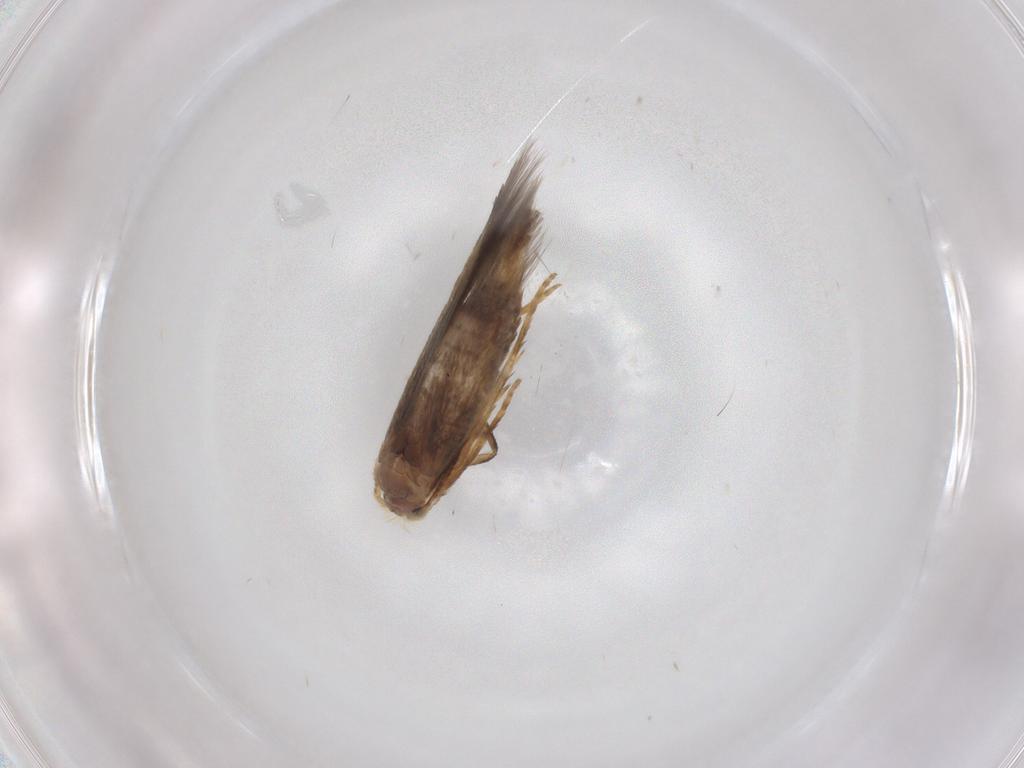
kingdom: Animalia
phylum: Arthropoda
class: Insecta
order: Lepidoptera
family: Nepticulidae
